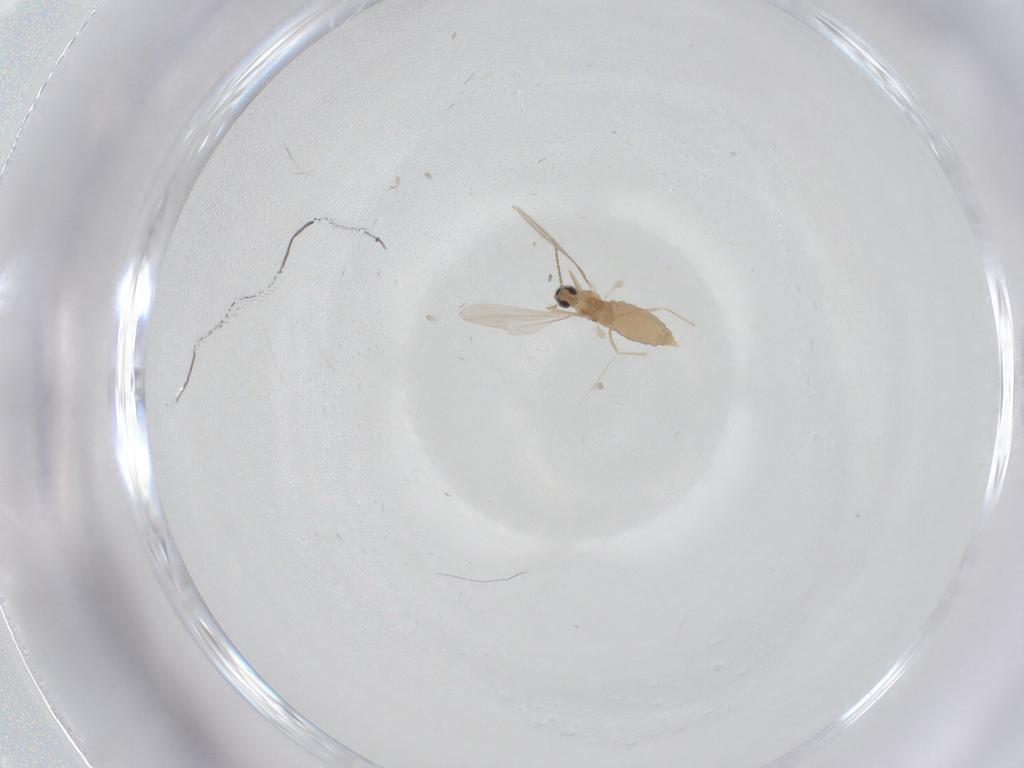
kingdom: Animalia
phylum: Arthropoda
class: Insecta
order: Diptera
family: Cecidomyiidae
